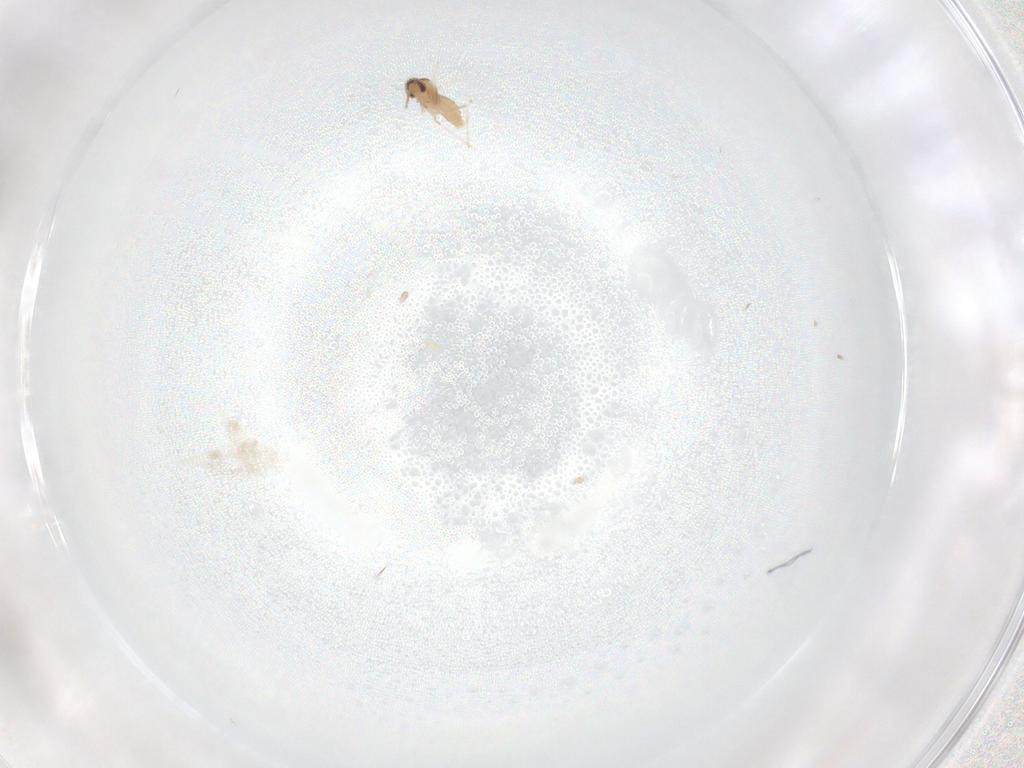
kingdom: Animalia
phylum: Arthropoda
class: Insecta
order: Diptera
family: Cecidomyiidae
